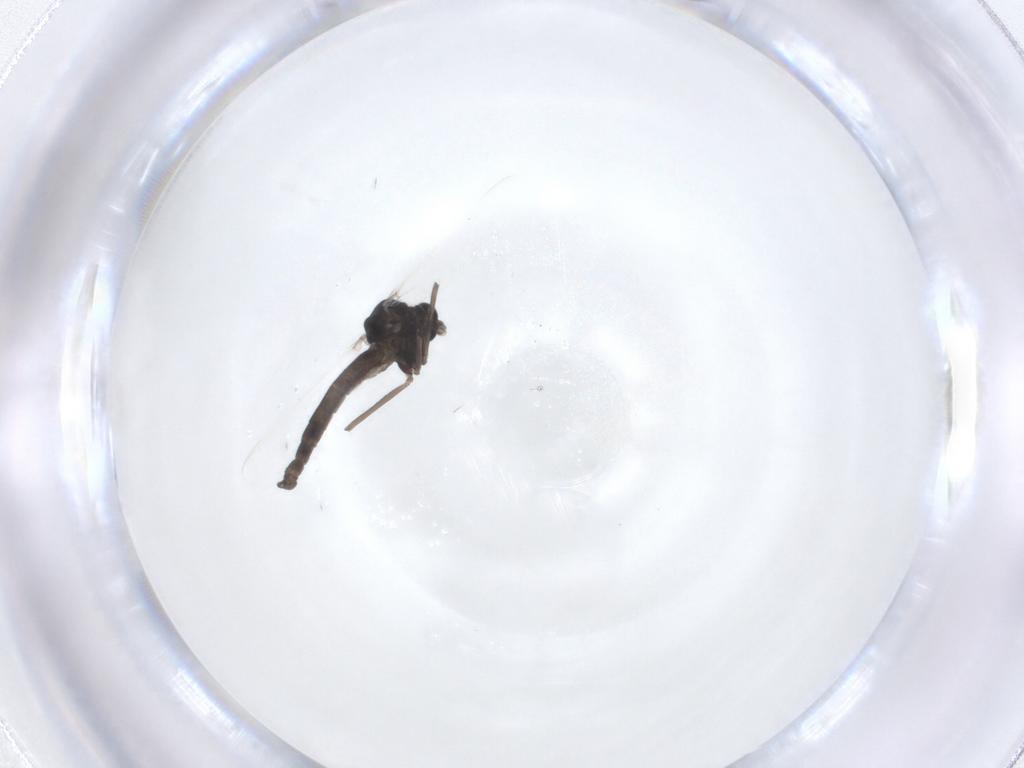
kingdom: Animalia
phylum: Arthropoda
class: Insecta
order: Diptera
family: Chironomidae
